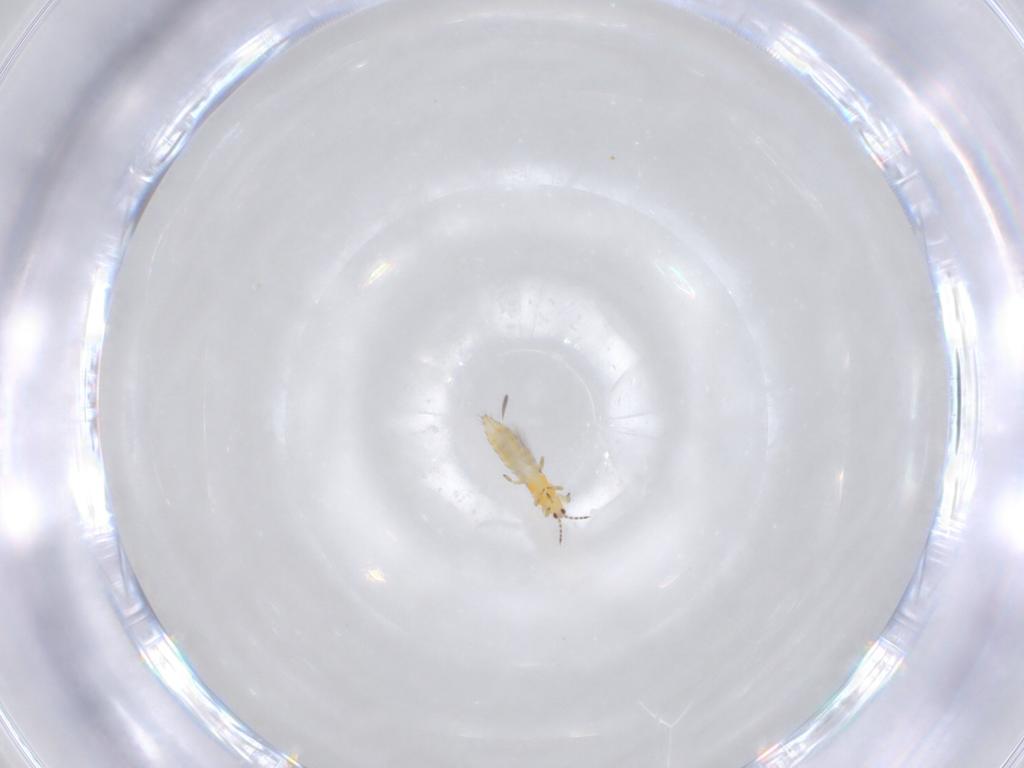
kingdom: Animalia
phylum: Arthropoda
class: Insecta
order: Thysanoptera
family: Thripidae
